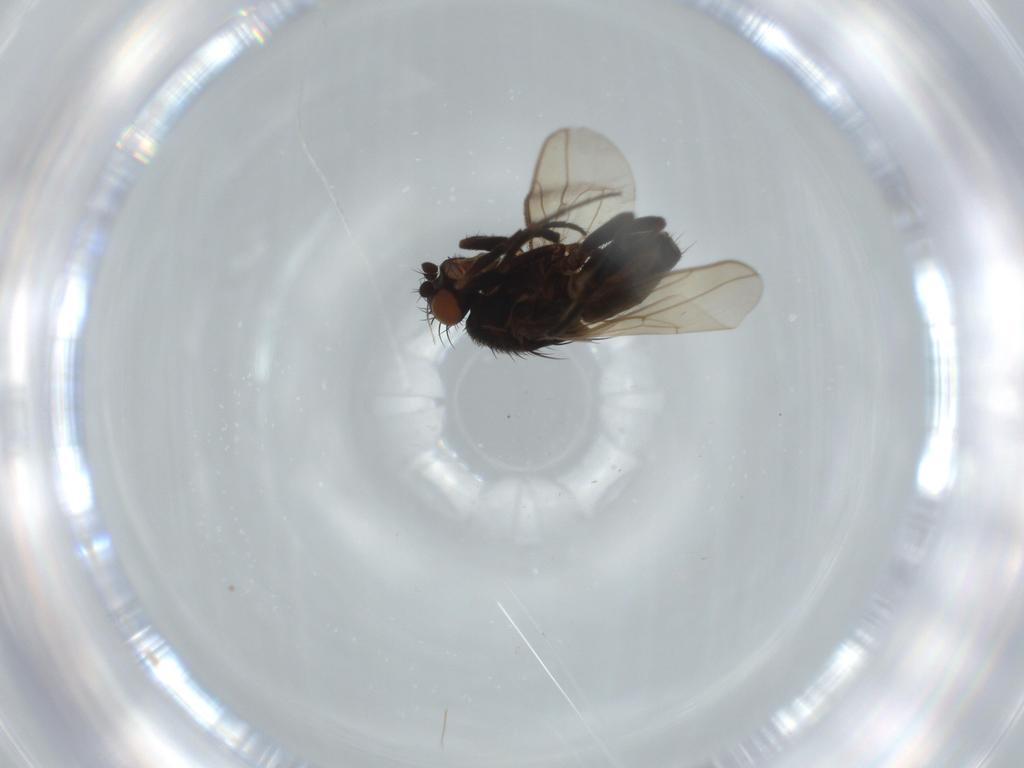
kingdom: Animalia
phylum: Arthropoda
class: Insecta
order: Diptera
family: Sphaeroceridae
